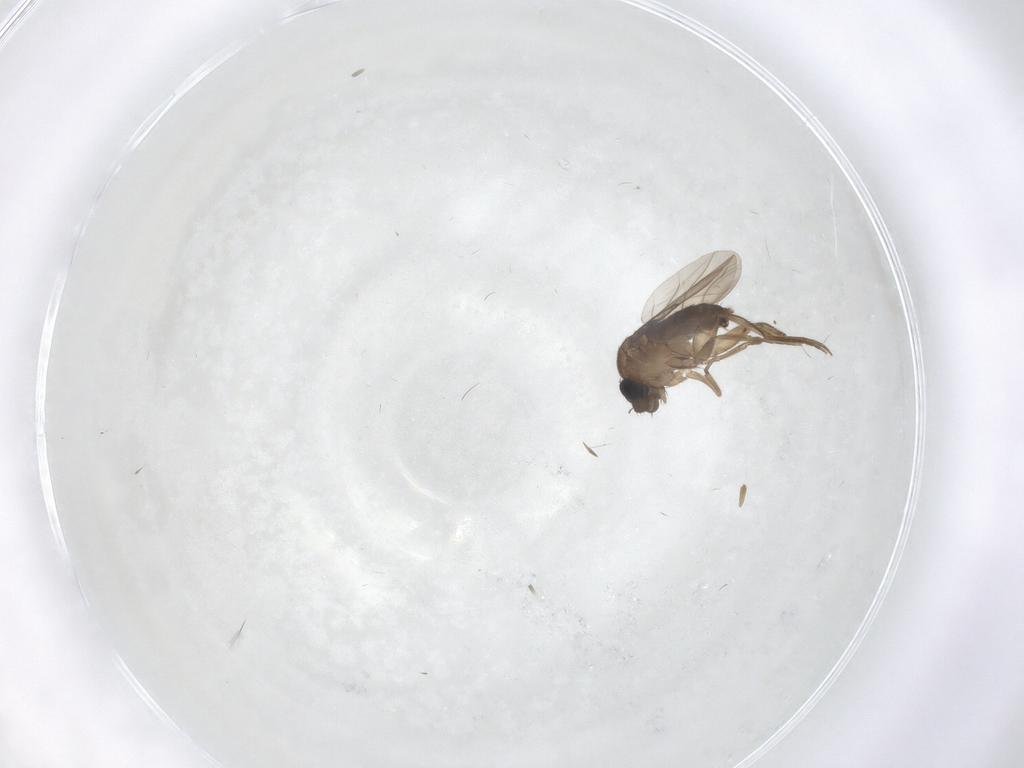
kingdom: Animalia
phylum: Arthropoda
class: Insecta
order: Diptera
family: Phoridae
